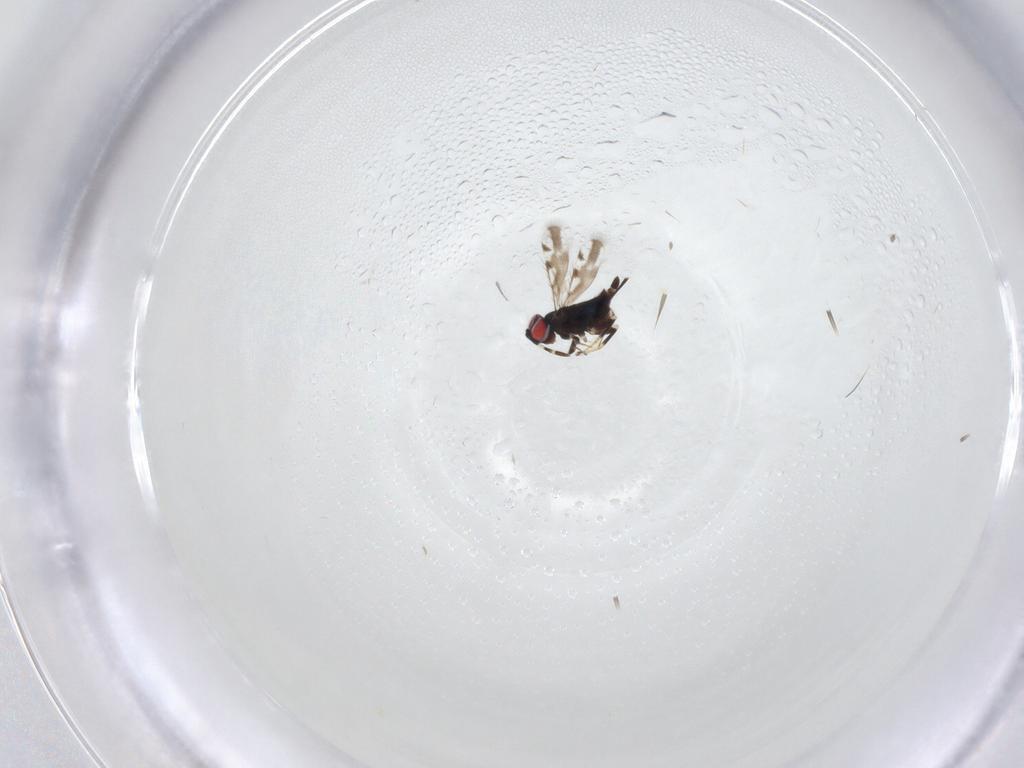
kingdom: Animalia
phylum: Arthropoda
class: Insecta
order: Hymenoptera
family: Azotidae
